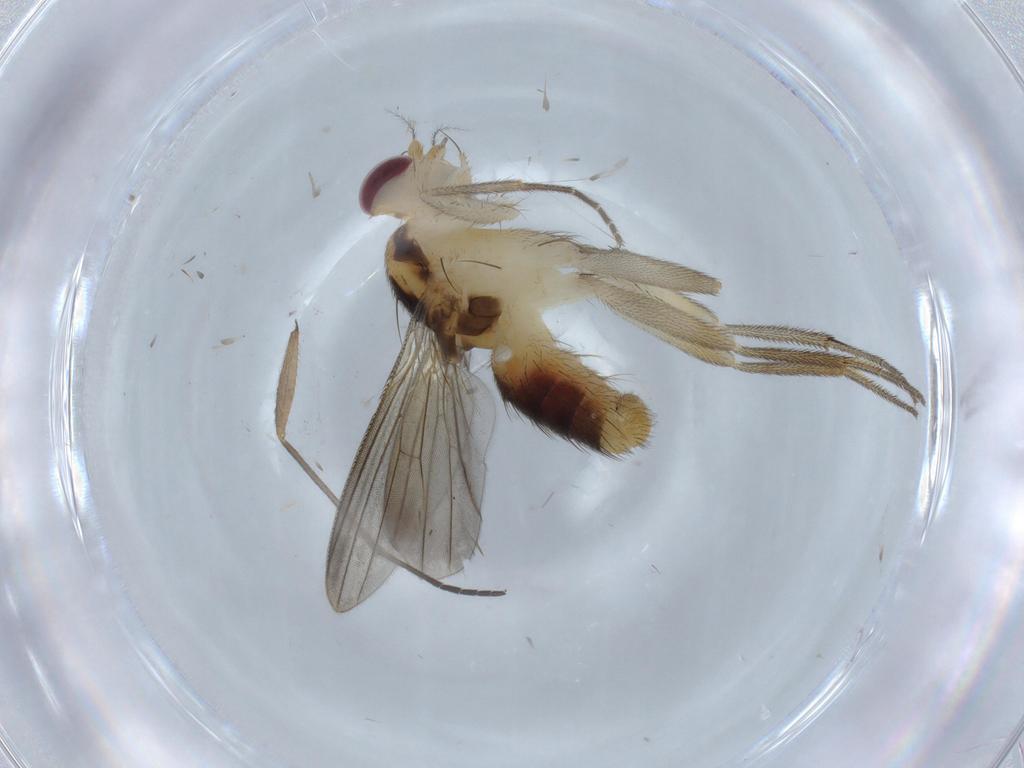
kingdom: Animalia
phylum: Arthropoda
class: Insecta
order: Diptera
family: Clusiidae
